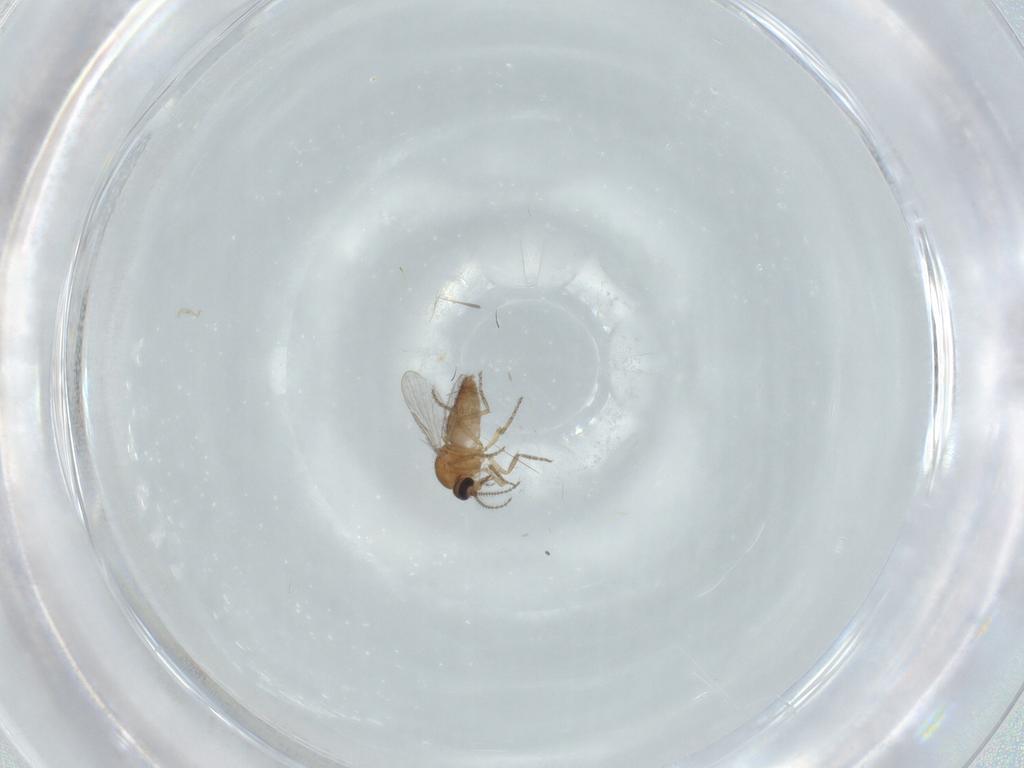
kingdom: Animalia
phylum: Arthropoda
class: Insecta
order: Diptera
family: Ceratopogonidae
